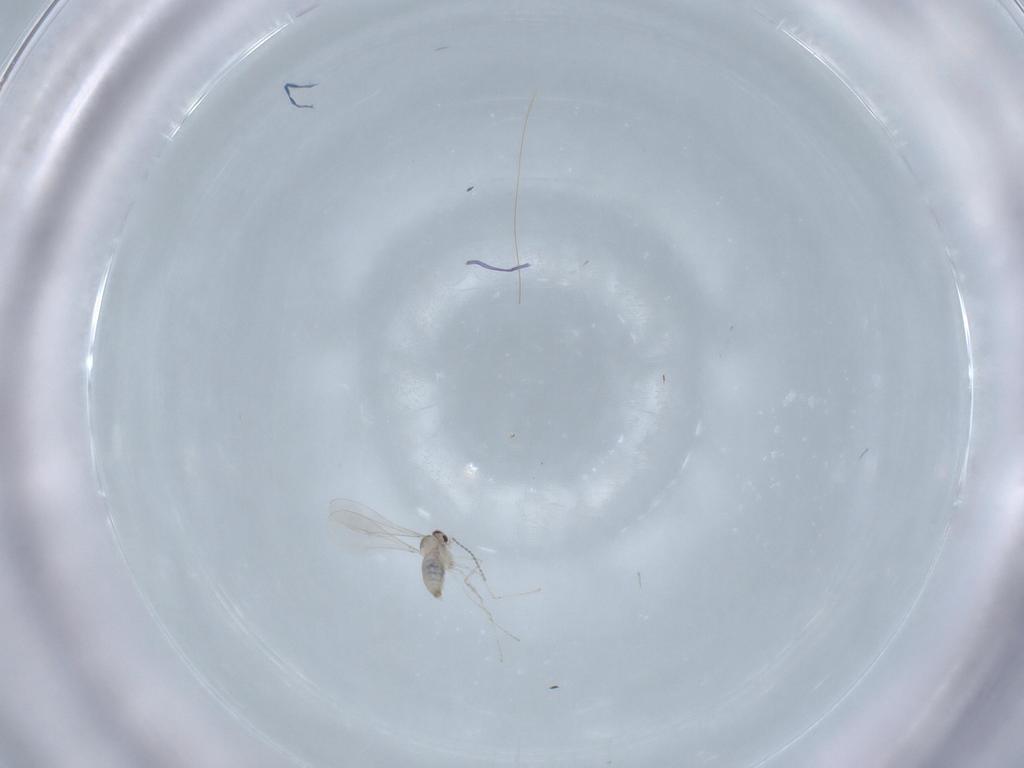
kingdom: Animalia
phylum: Arthropoda
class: Insecta
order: Diptera
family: Cecidomyiidae
